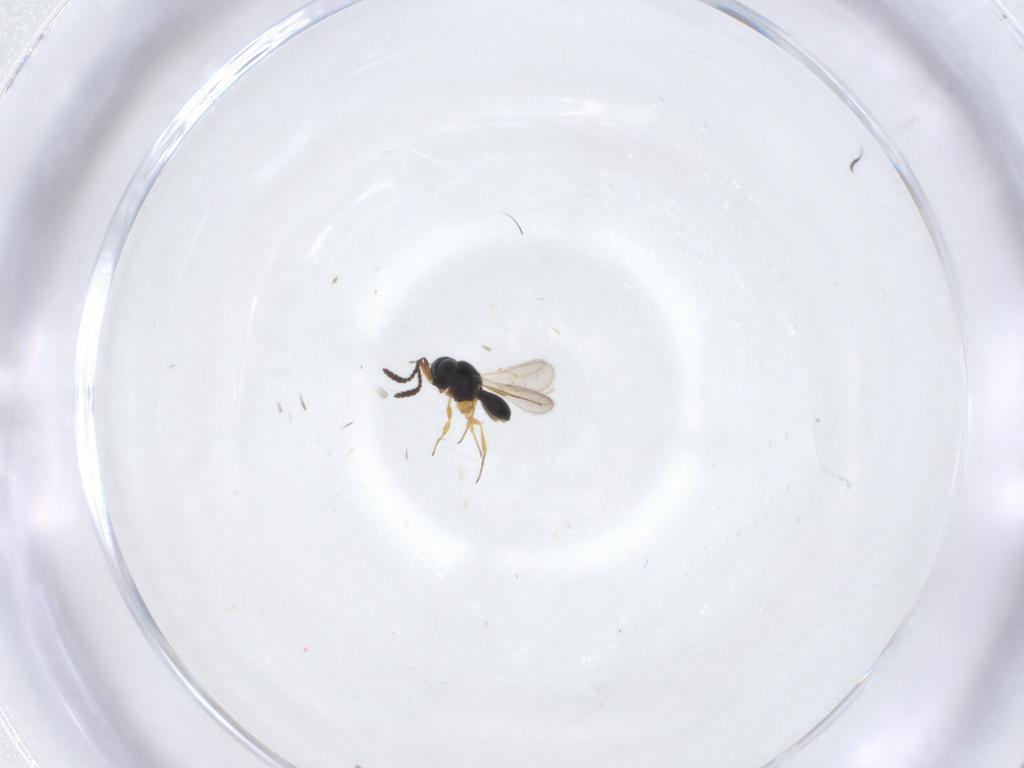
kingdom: Animalia
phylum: Arthropoda
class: Insecta
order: Hymenoptera
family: Scelionidae
